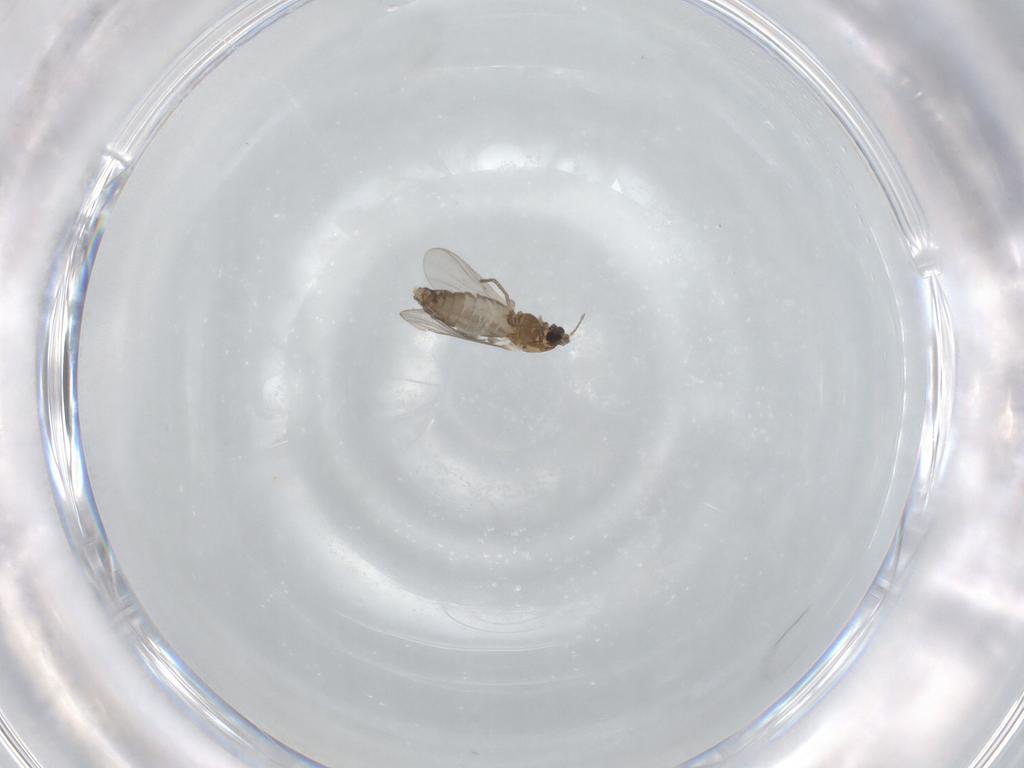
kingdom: Animalia
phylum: Arthropoda
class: Insecta
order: Diptera
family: Chironomidae
